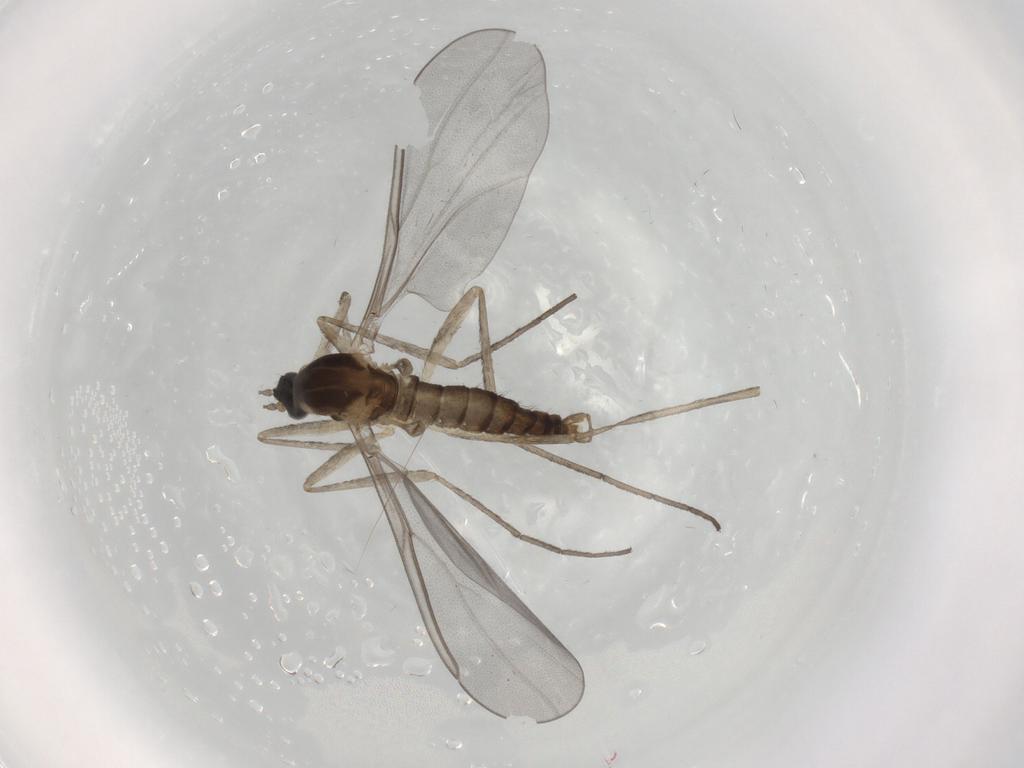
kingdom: Animalia
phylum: Arthropoda
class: Insecta
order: Diptera
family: Cecidomyiidae
